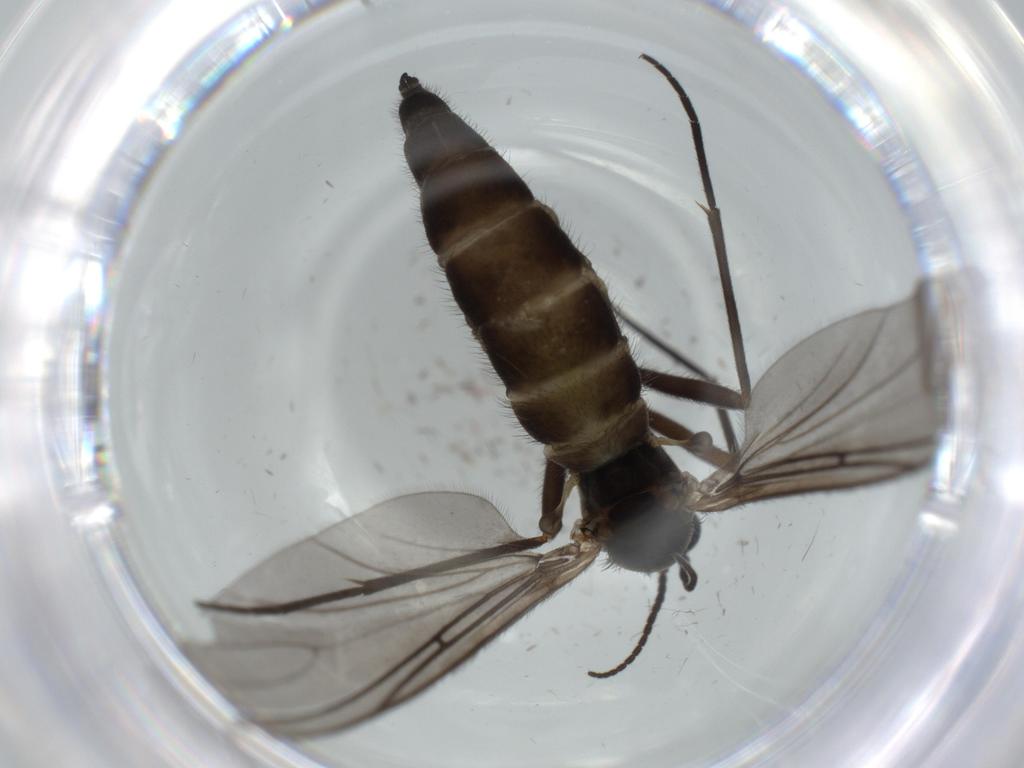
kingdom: Animalia
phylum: Arthropoda
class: Insecta
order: Diptera
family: Sciaridae
